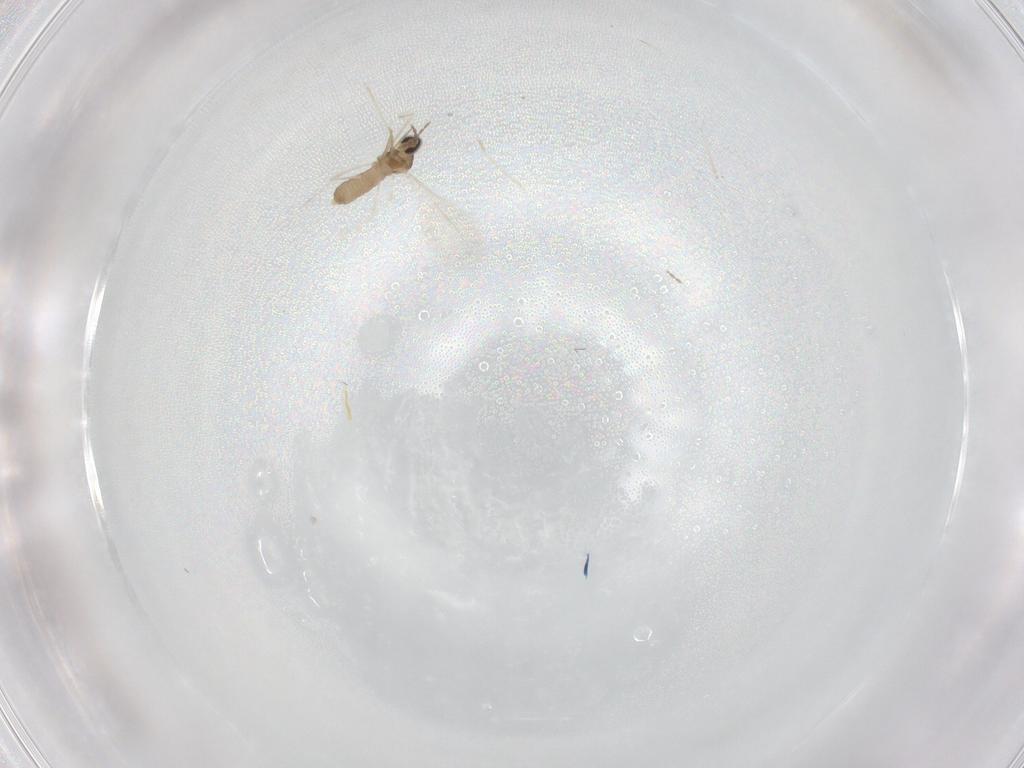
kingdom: Animalia
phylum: Arthropoda
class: Insecta
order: Diptera
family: Cecidomyiidae
